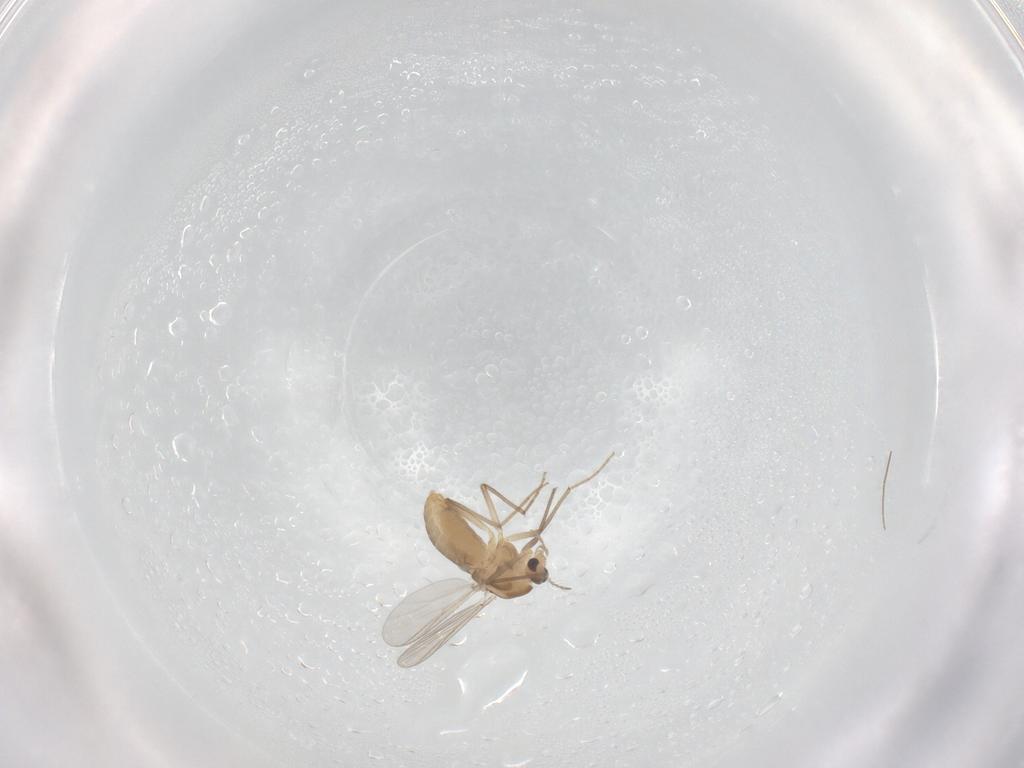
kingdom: Animalia
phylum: Arthropoda
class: Insecta
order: Diptera
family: Chironomidae
